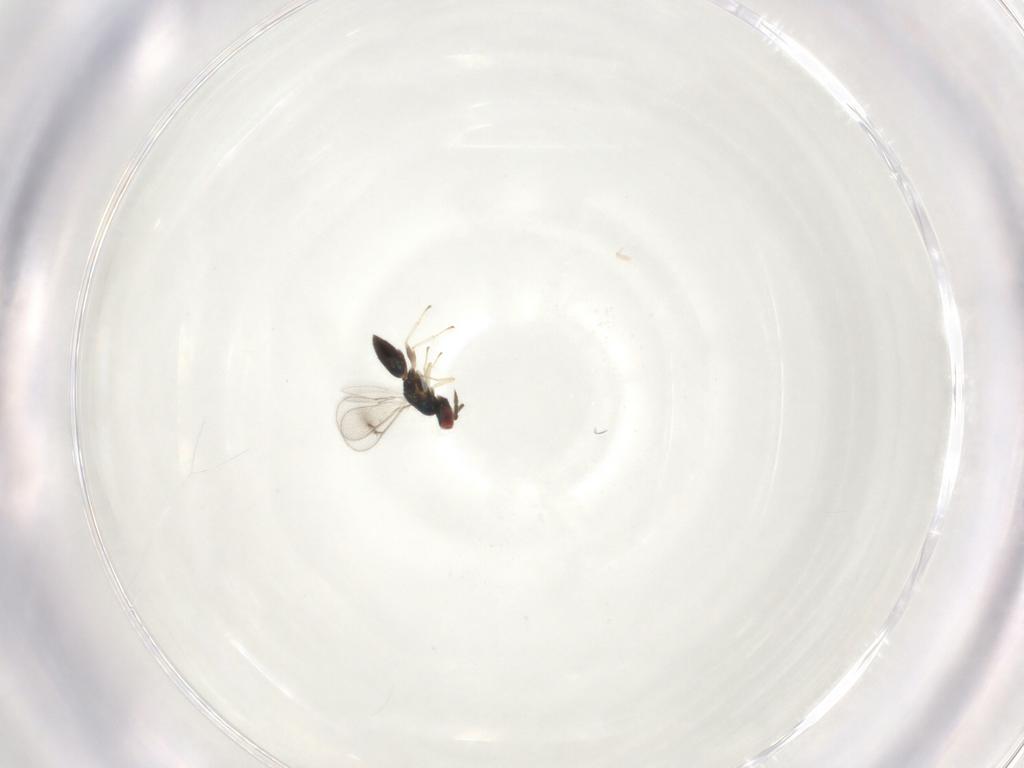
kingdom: Animalia
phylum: Arthropoda
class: Insecta
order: Hymenoptera
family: Eulophidae
